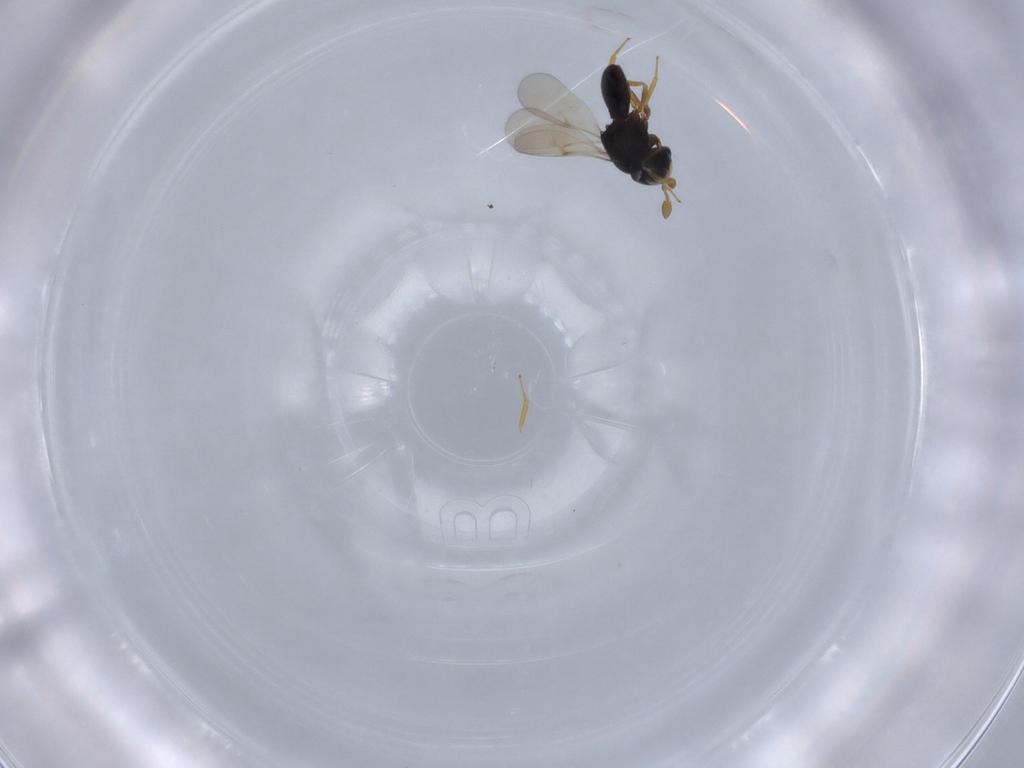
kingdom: Animalia
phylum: Arthropoda
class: Insecta
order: Hymenoptera
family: Scelionidae
